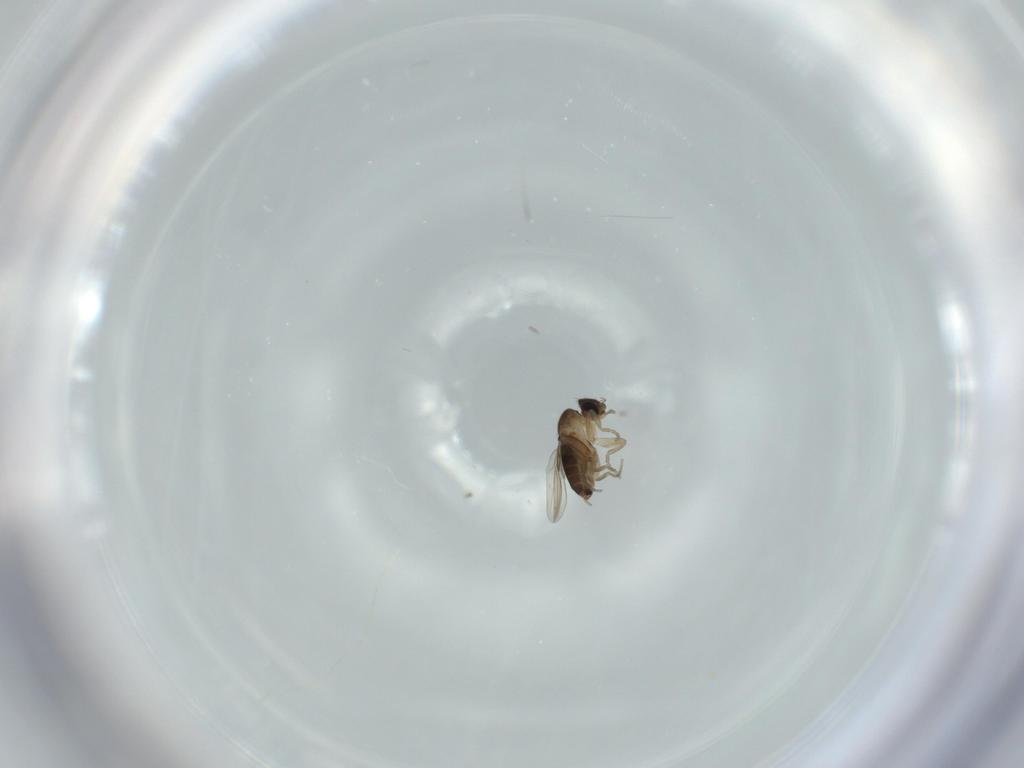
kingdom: Animalia
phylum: Arthropoda
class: Insecta
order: Diptera
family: Phoridae
